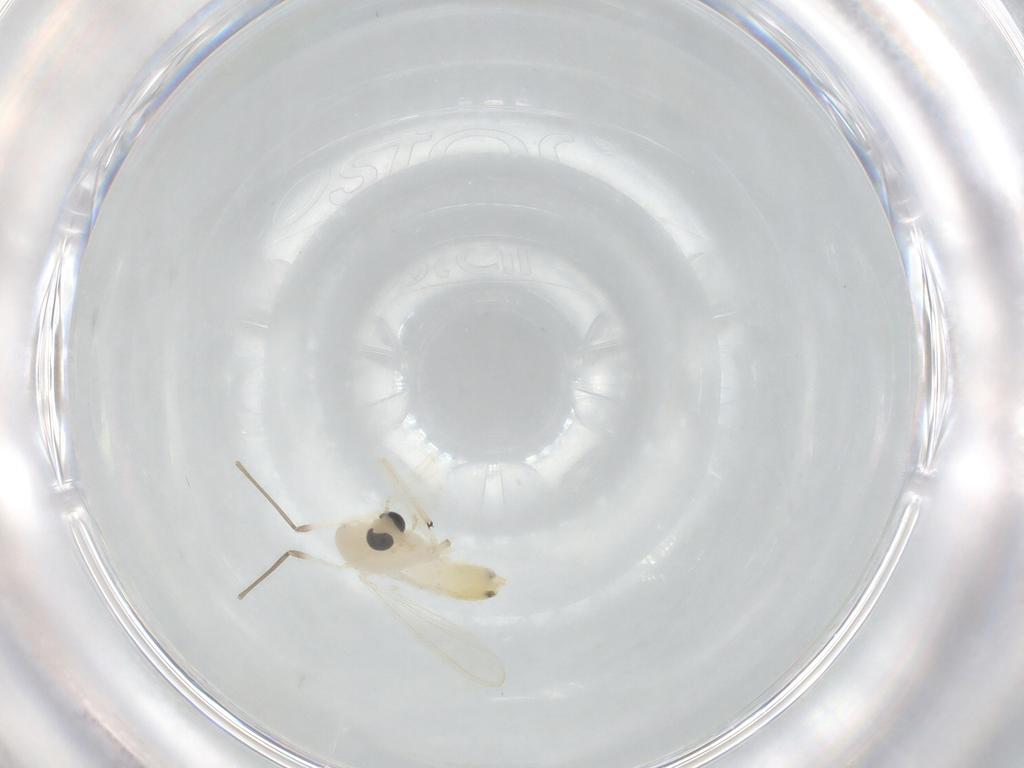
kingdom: Animalia
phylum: Arthropoda
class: Insecta
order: Diptera
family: Chironomidae
